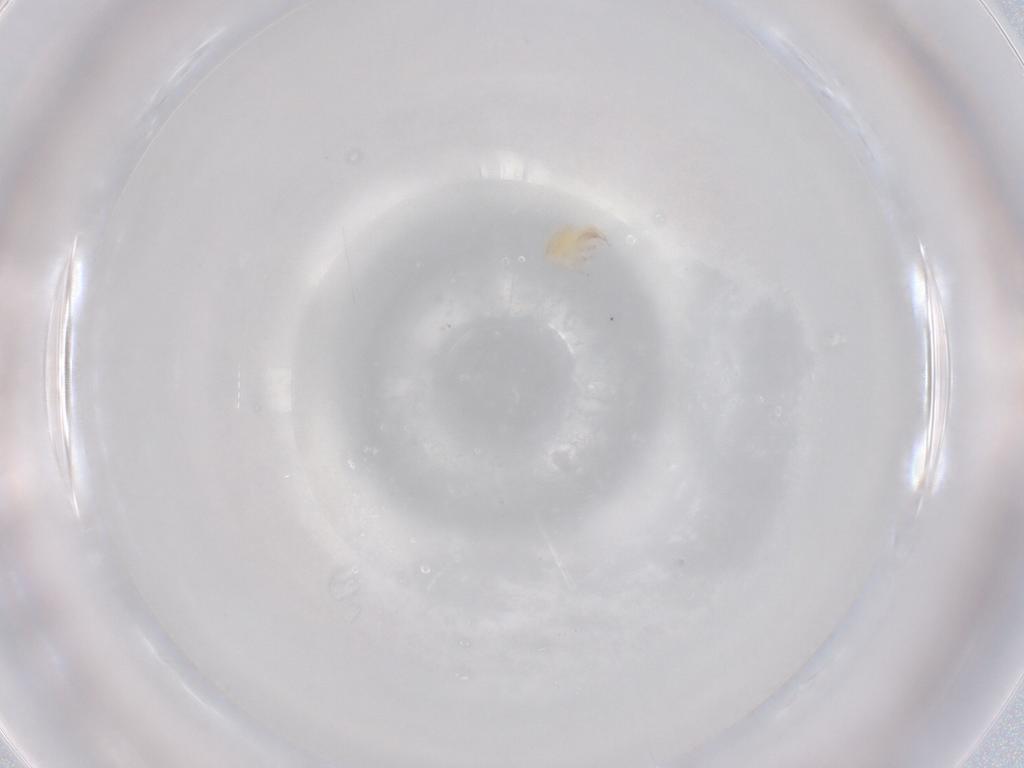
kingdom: Animalia
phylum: Arthropoda
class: Arachnida
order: Trombidiformes
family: Stigmaeidae
